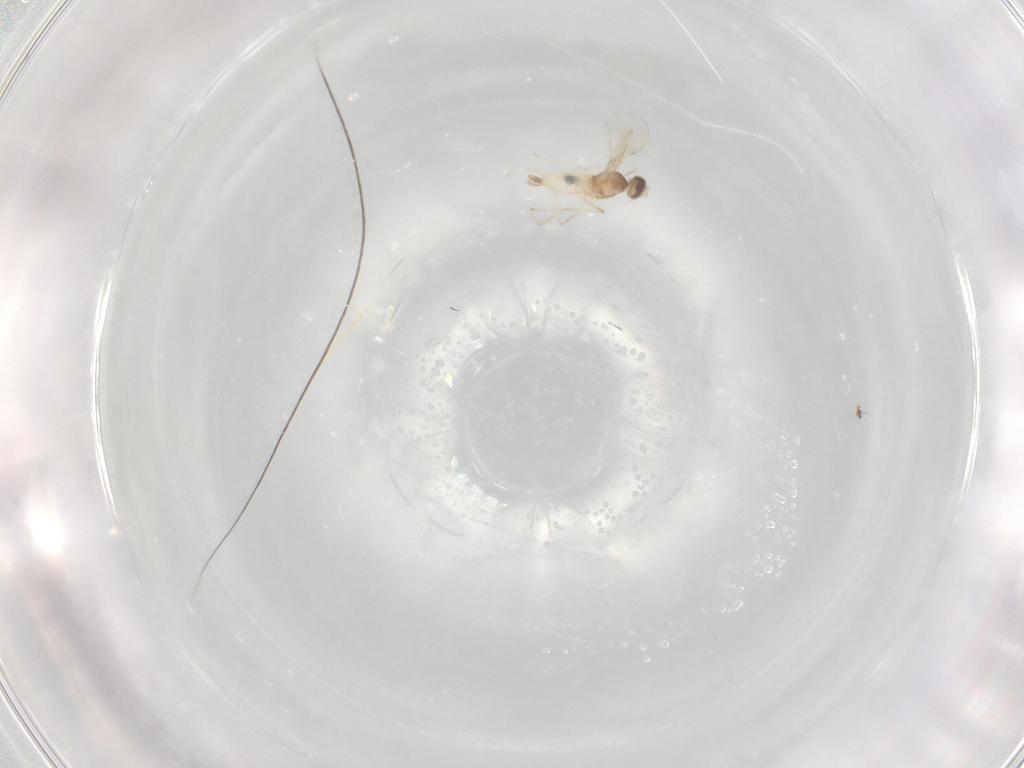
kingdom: Animalia
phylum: Arthropoda
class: Insecta
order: Diptera
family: Cecidomyiidae
